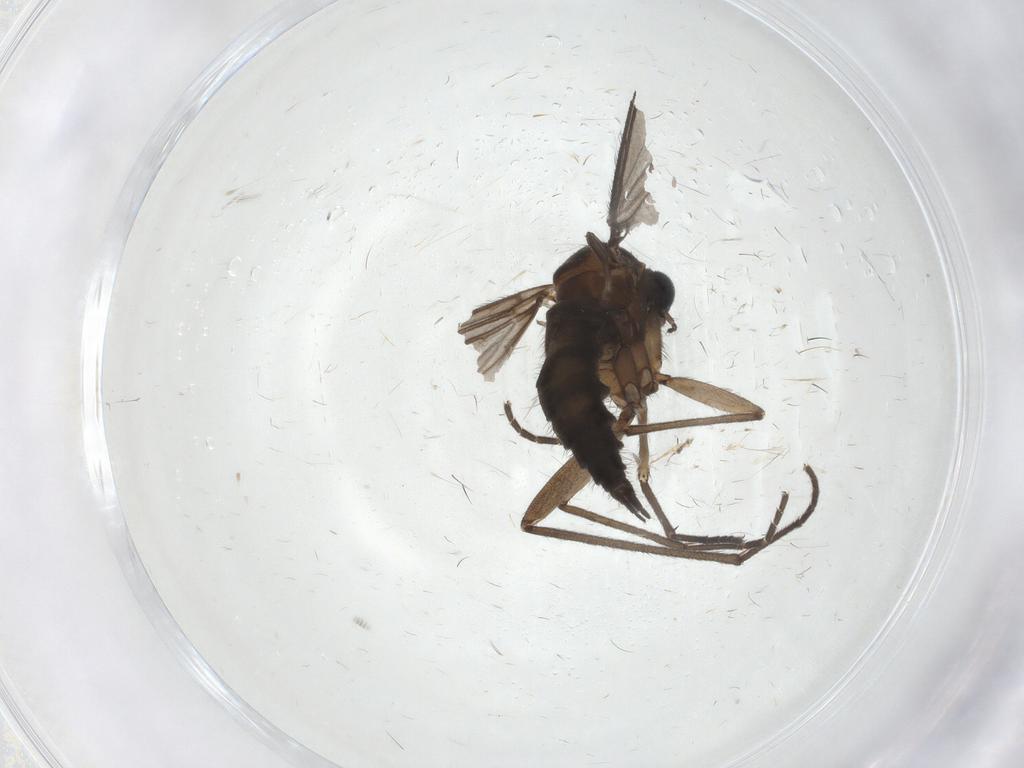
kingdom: Animalia
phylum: Arthropoda
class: Insecta
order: Diptera
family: Sciaridae
